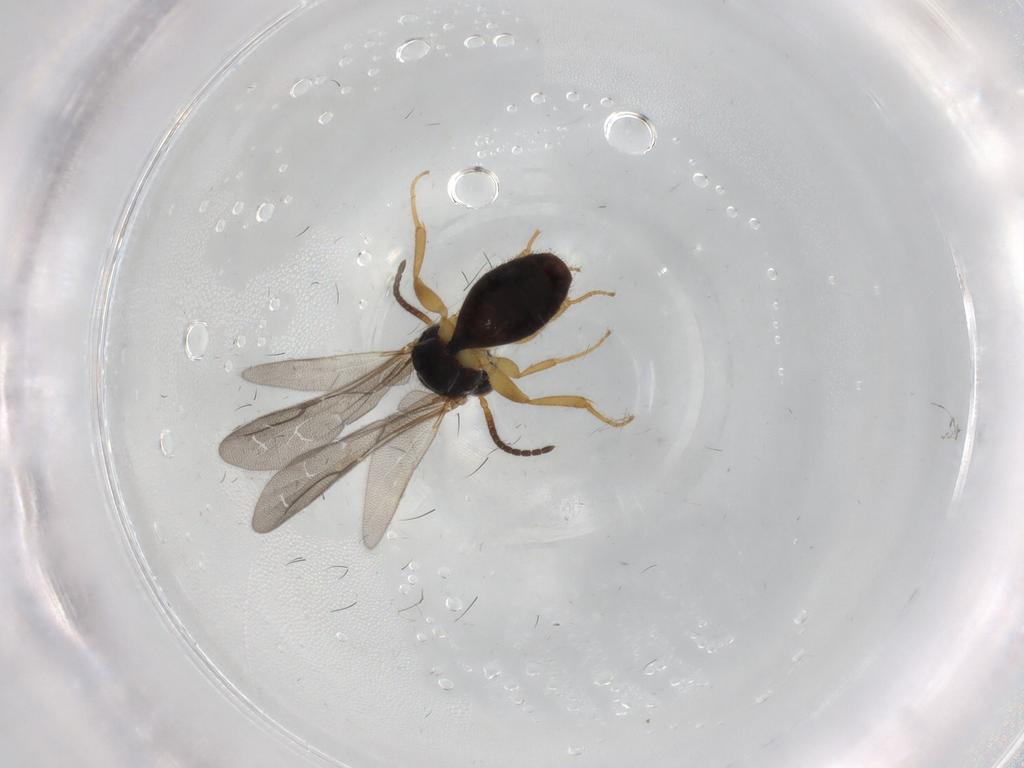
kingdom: Animalia
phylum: Arthropoda
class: Insecta
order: Hymenoptera
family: Bethylidae
